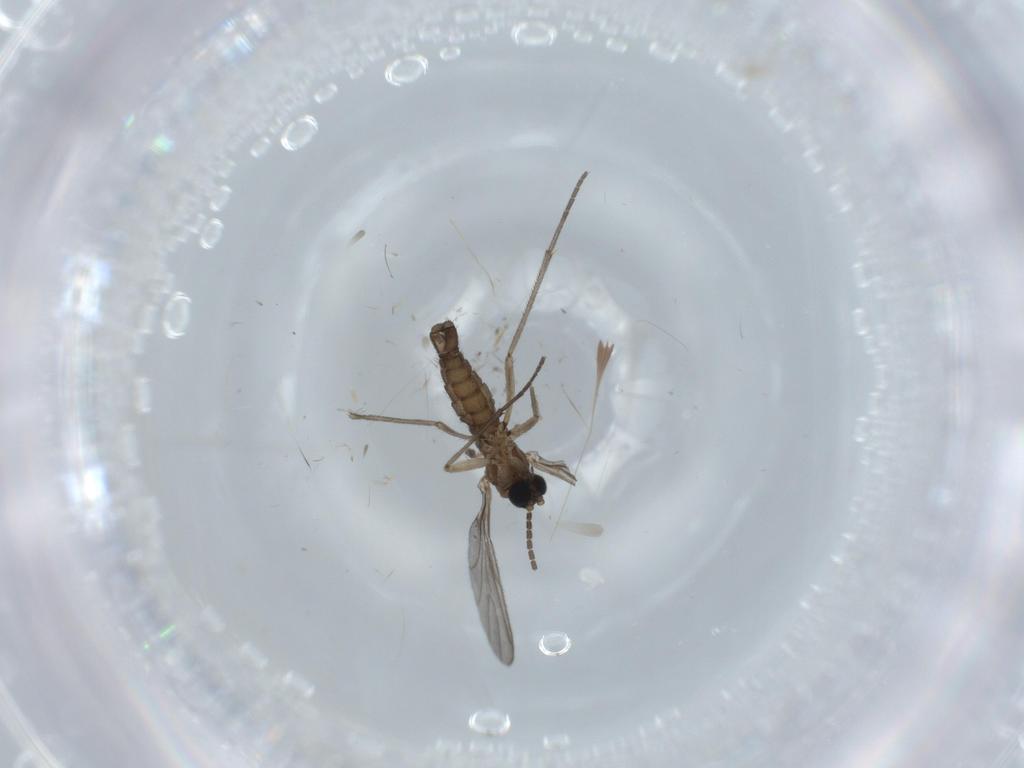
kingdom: Animalia
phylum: Arthropoda
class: Insecta
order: Diptera
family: Sciaridae
